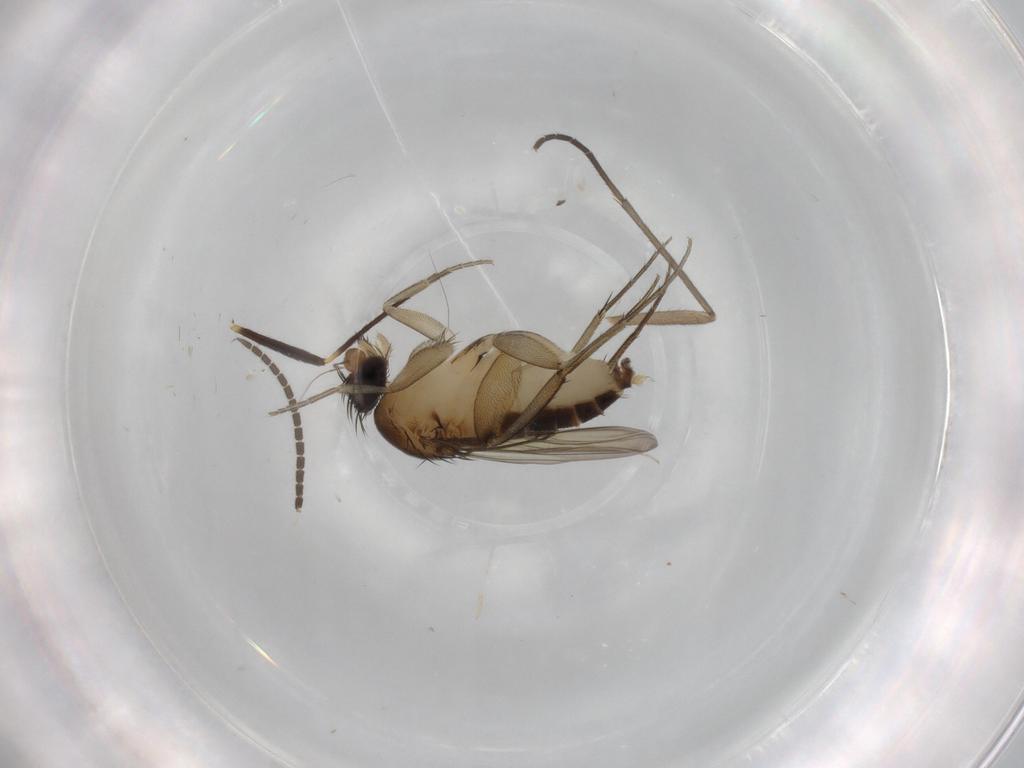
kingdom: Animalia
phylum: Arthropoda
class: Insecta
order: Diptera
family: Phoridae
